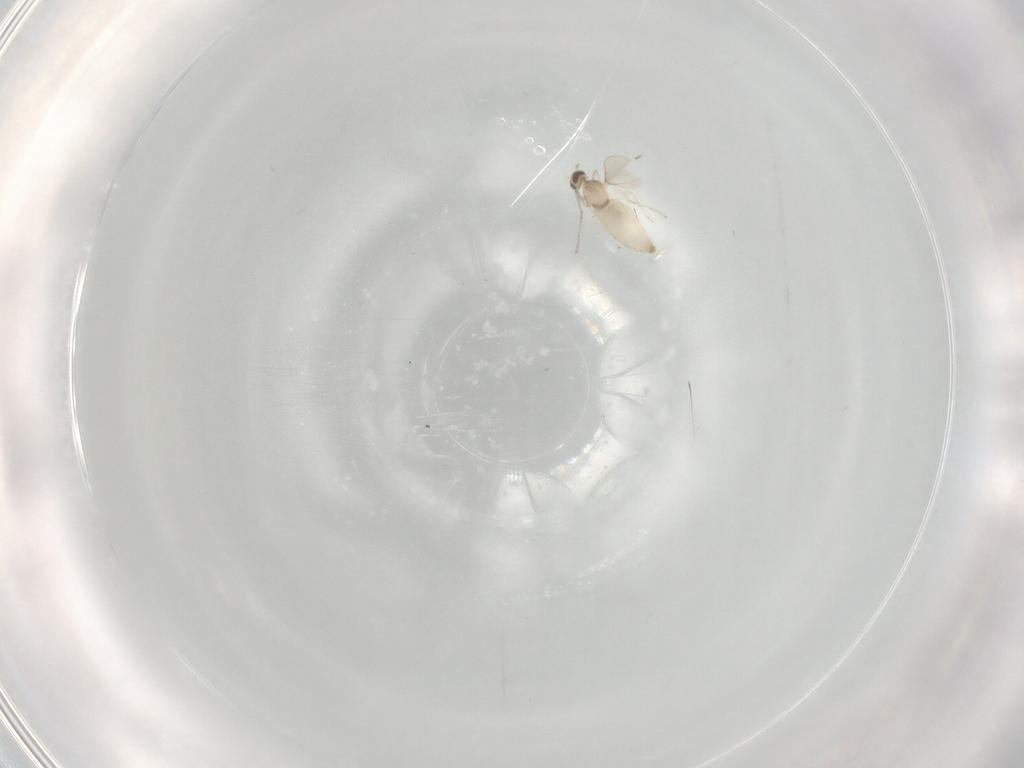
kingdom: Animalia
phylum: Arthropoda
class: Insecta
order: Diptera
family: Cecidomyiidae
